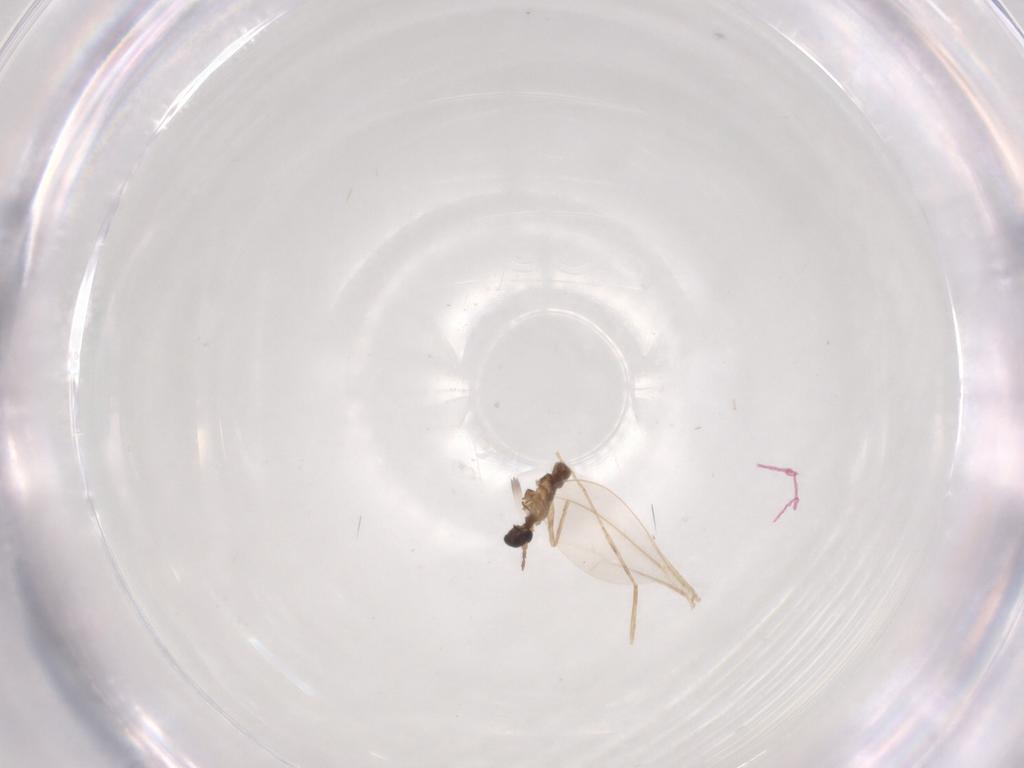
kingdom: Animalia
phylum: Arthropoda
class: Insecta
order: Diptera
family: Cecidomyiidae
